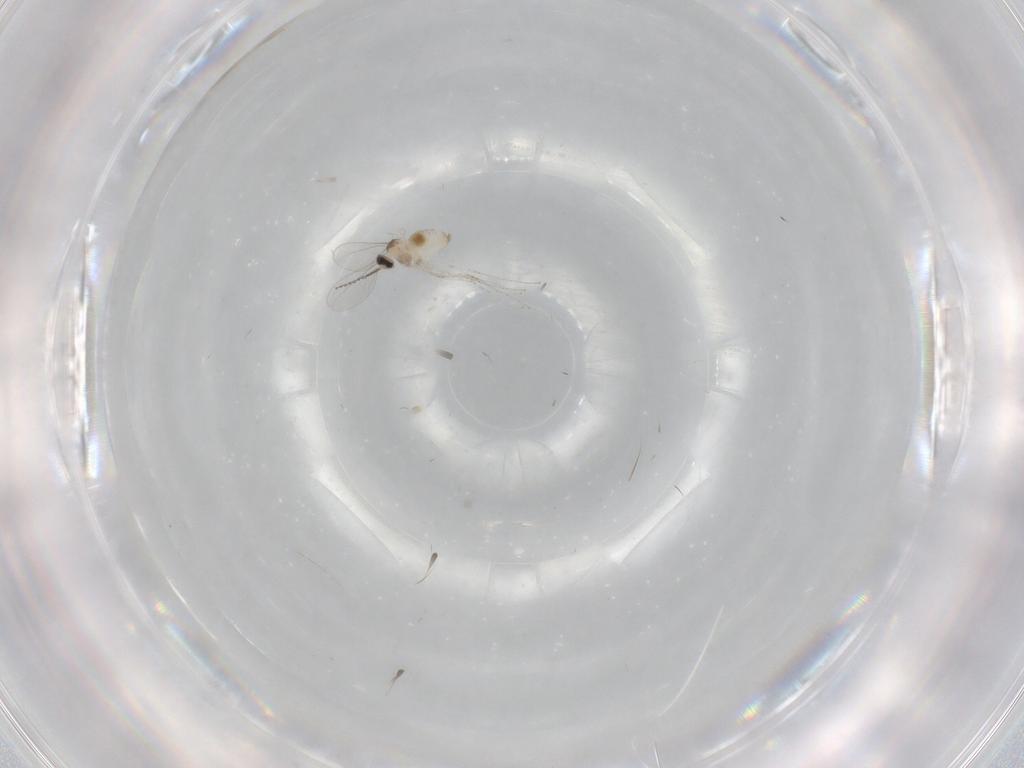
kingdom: Animalia
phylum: Arthropoda
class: Insecta
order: Diptera
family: Cecidomyiidae
